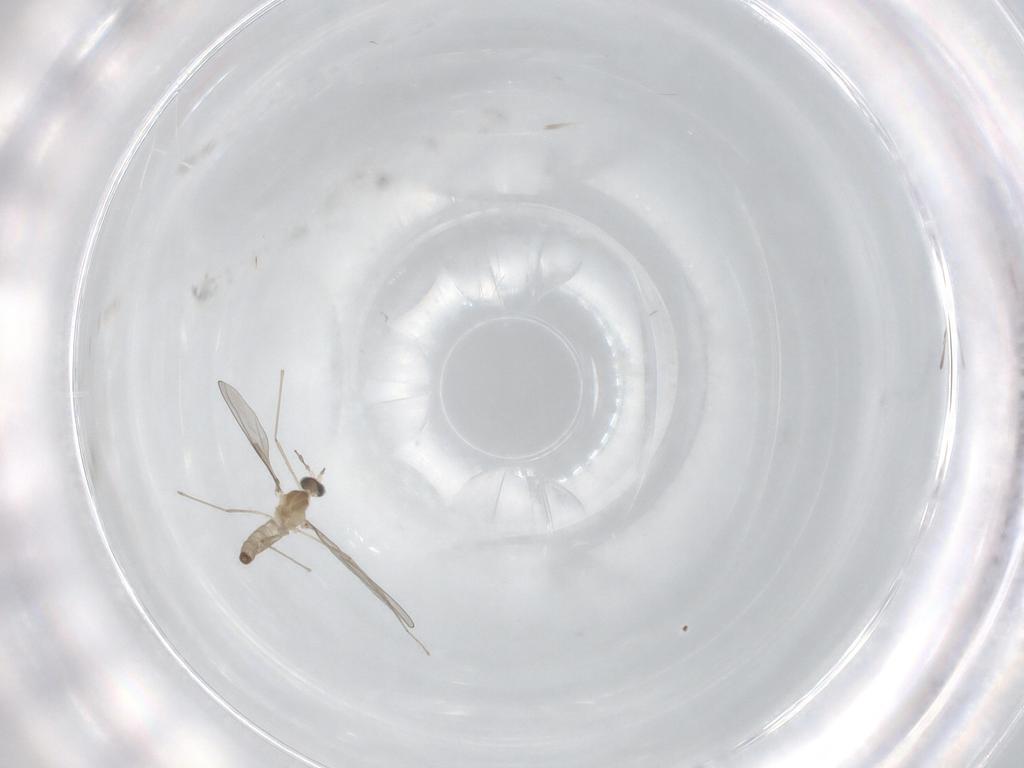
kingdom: Animalia
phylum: Arthropoda
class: Insecta
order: Diptera
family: Cecidomyiidae
